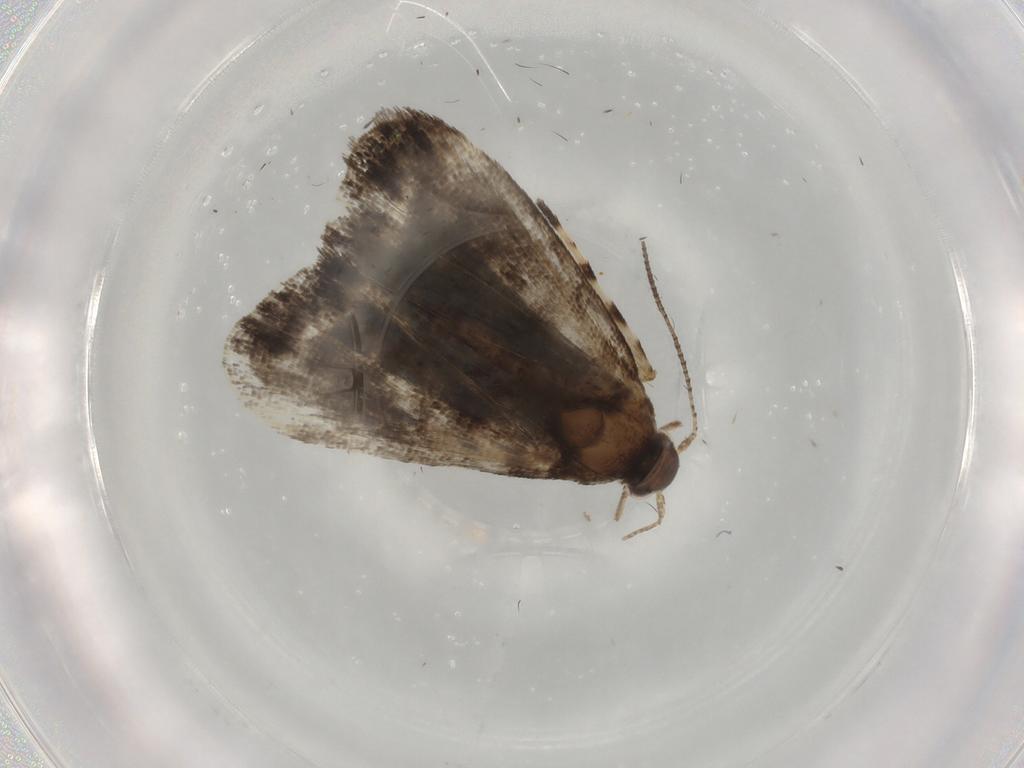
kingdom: Animalia
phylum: Arthropoda
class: Insecta
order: Lepidoptera
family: Choreutidae
